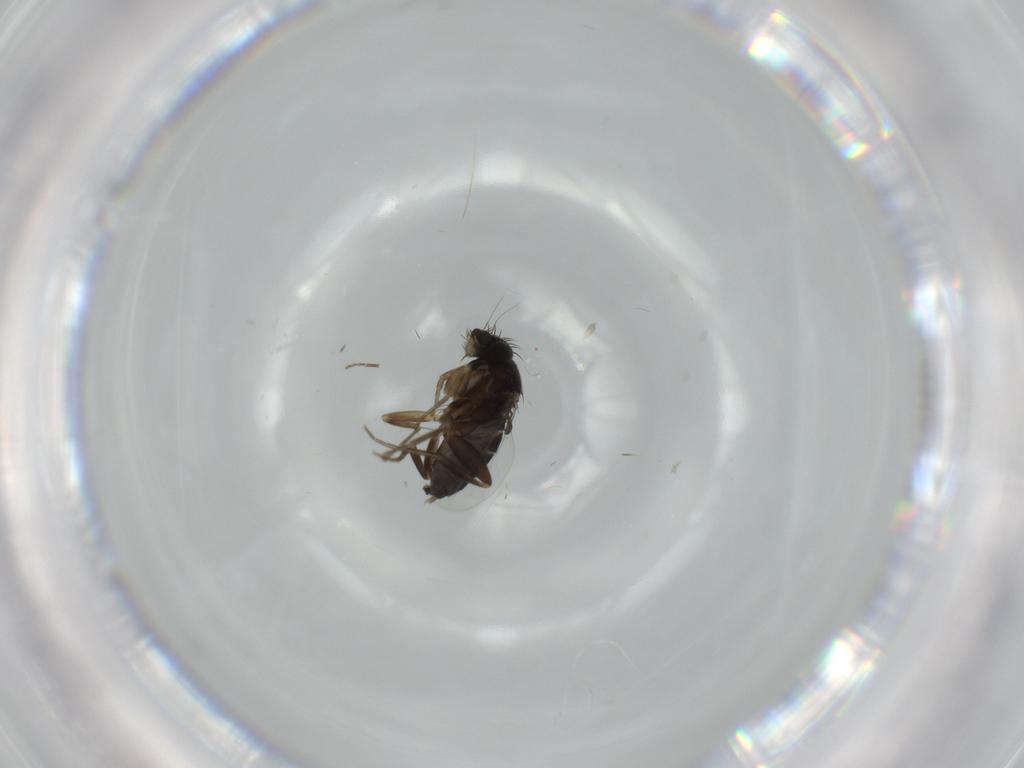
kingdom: Animalia
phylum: Arthropoda
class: Insecta
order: Diptera
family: Phoridae
